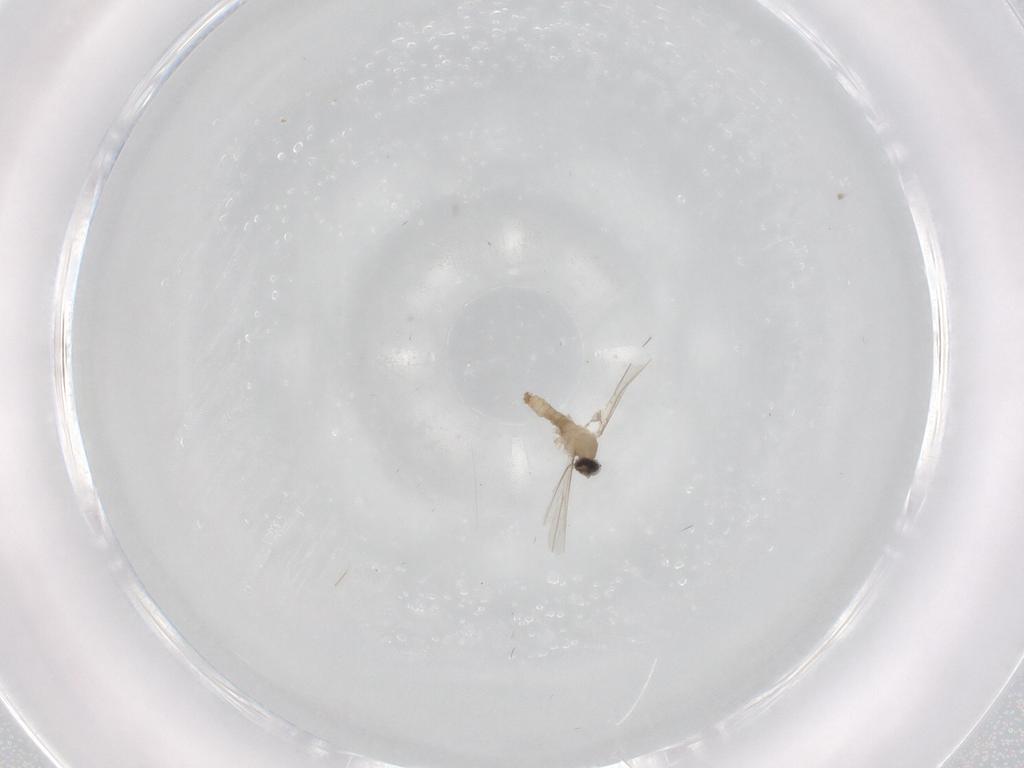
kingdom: Animalia
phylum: Arthropoda
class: Insecta
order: Diptera
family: Cecidomyiidae
